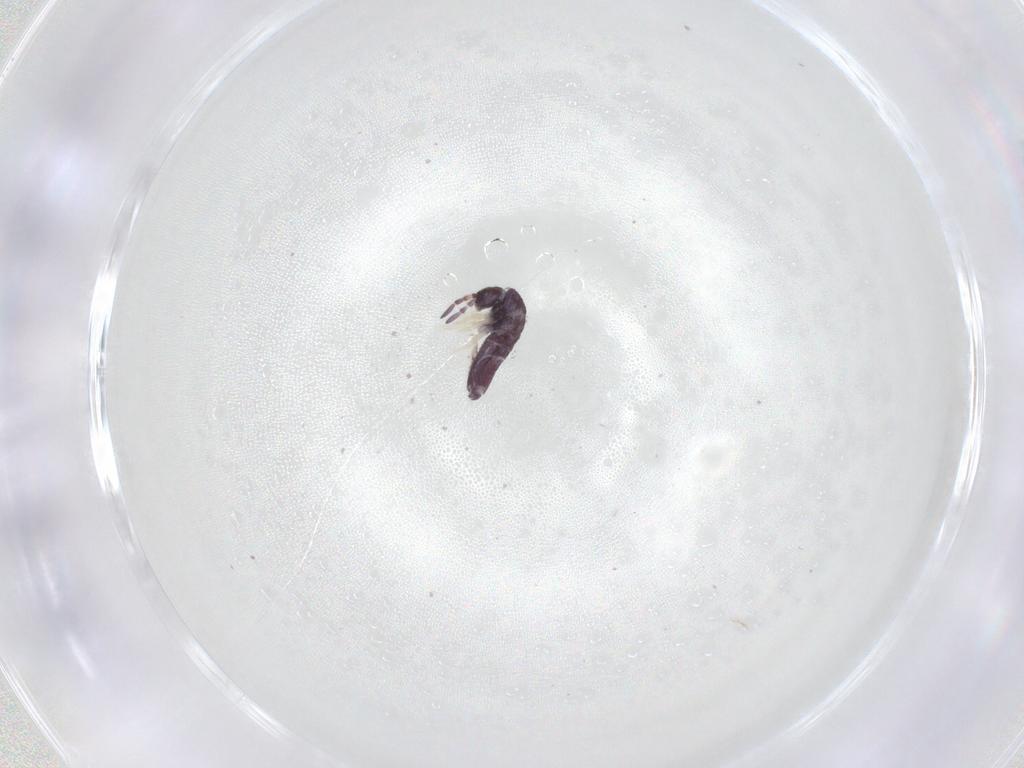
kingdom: Animalia
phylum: Arthropoda
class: Collembola
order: Entomobryomorpha
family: Entomobryidae
